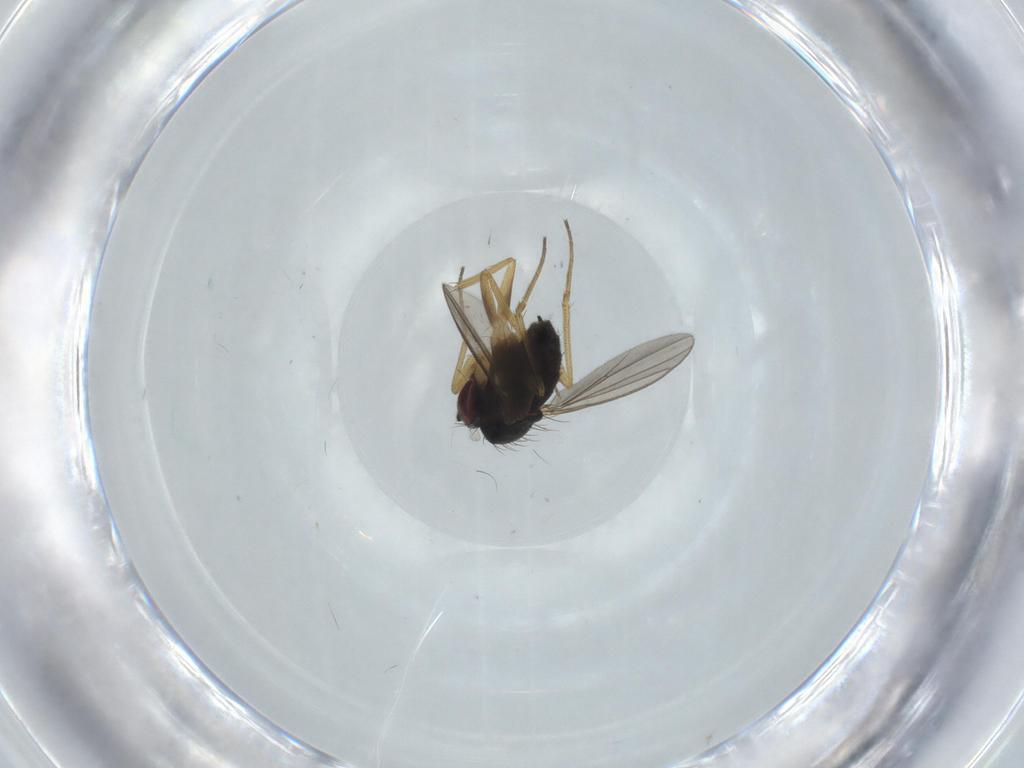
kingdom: Animalia
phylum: Arthropoda
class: Insecta
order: Diptera
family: Dolichopodidae
